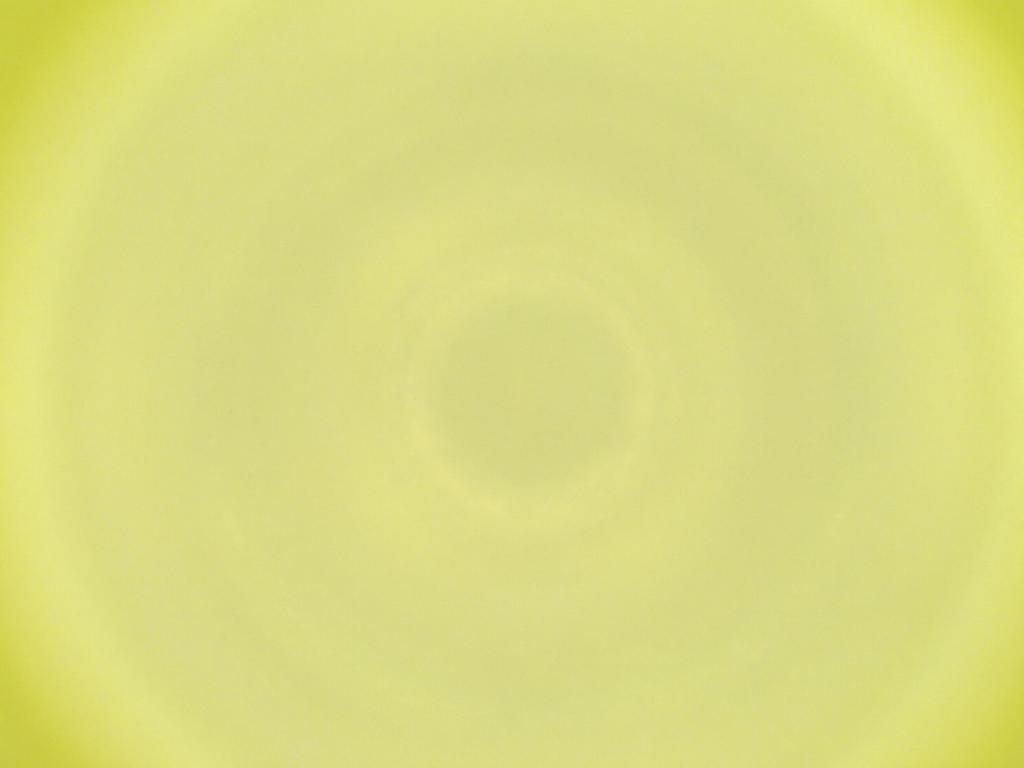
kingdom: Animalia
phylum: Arthropoda
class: Insecta
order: Diptera
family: Cecidomyiidae
